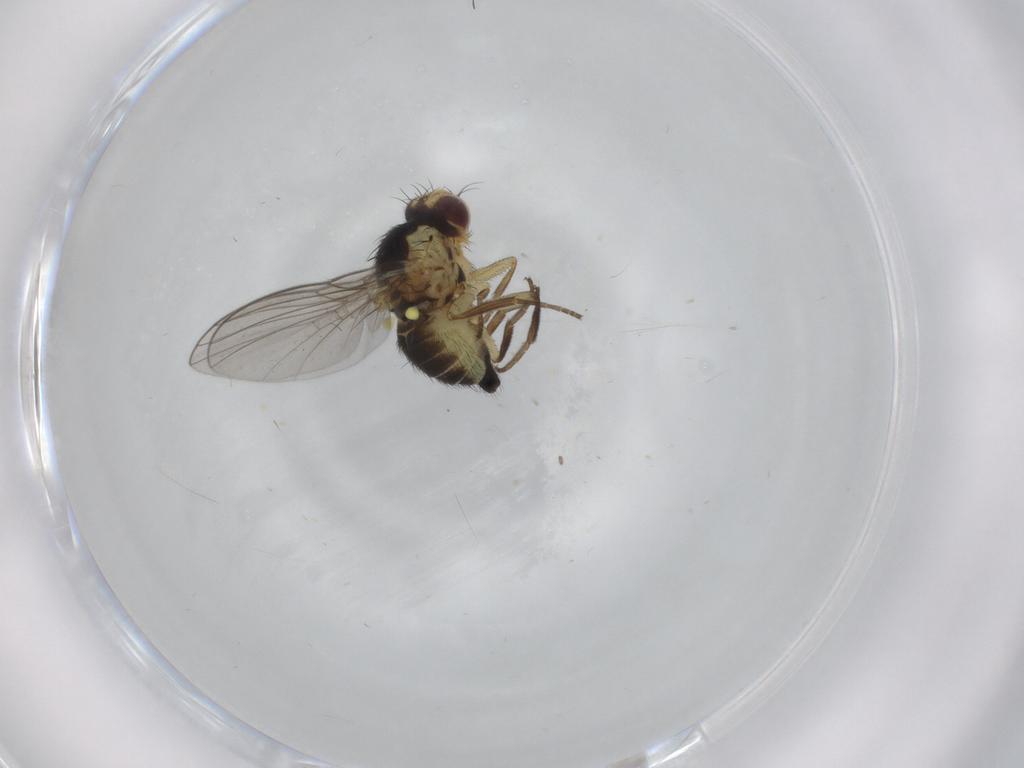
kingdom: Animalia
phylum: Arthropoda
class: Insecta
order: Diptera
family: Agromyzidae
